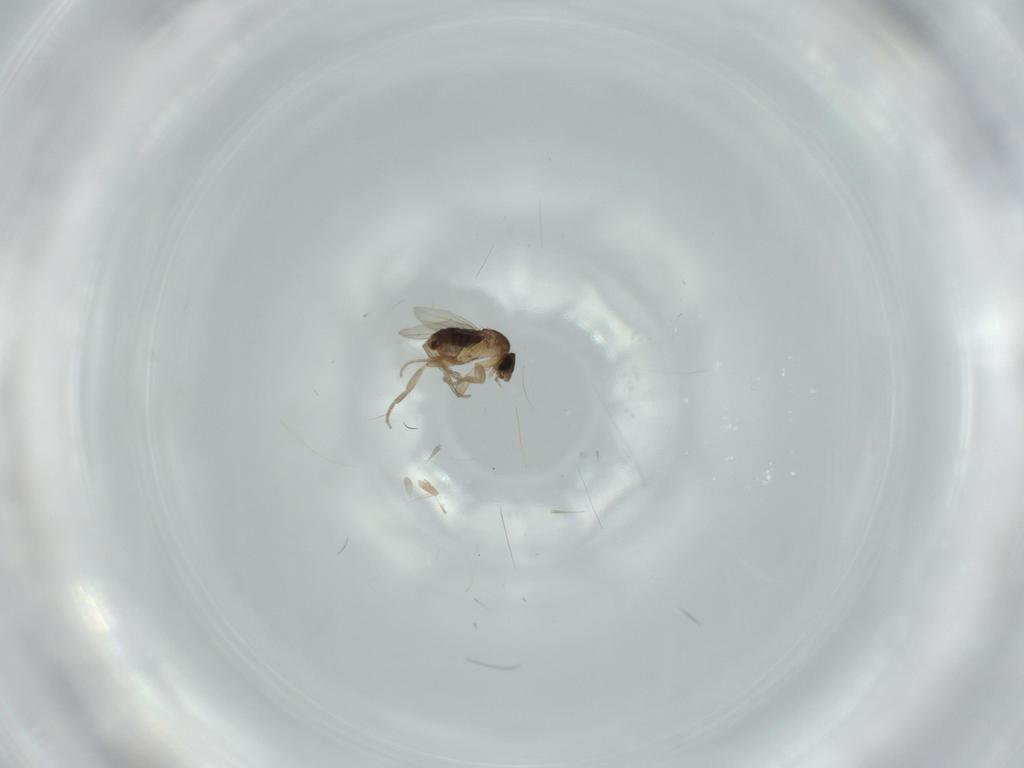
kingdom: Animalia
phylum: Arthropoda
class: Insecta
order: Diptera
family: Phoridae
